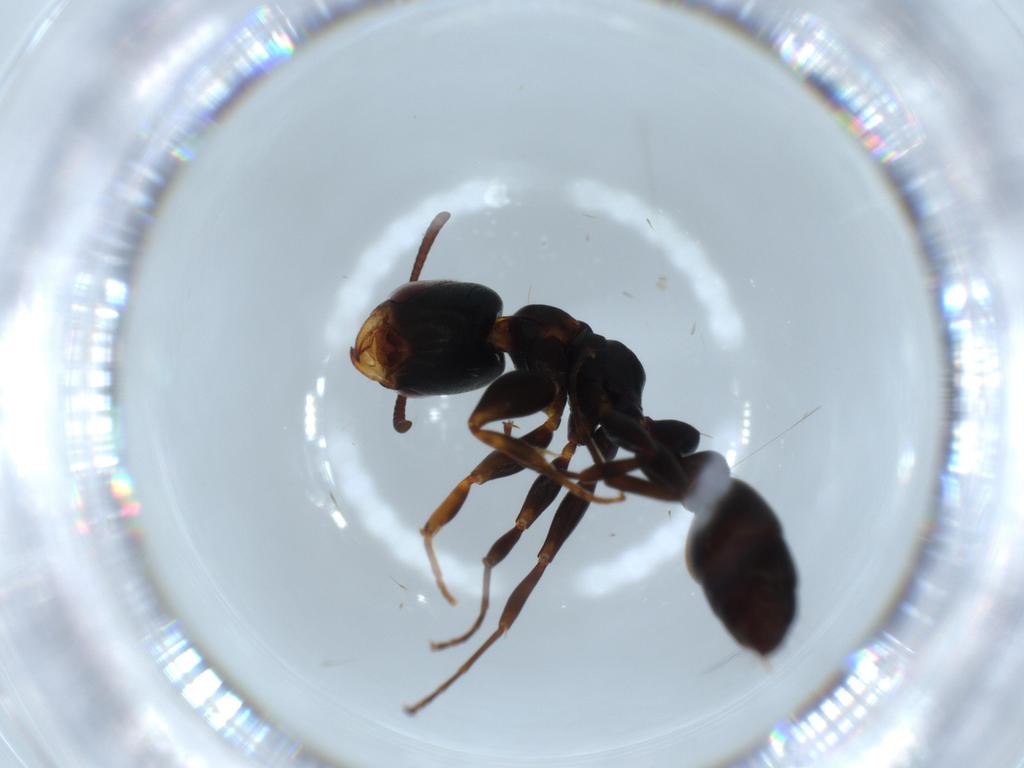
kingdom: Animalia
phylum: Arthropoda
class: Insecta
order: Hymenoptera
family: Formicidae
